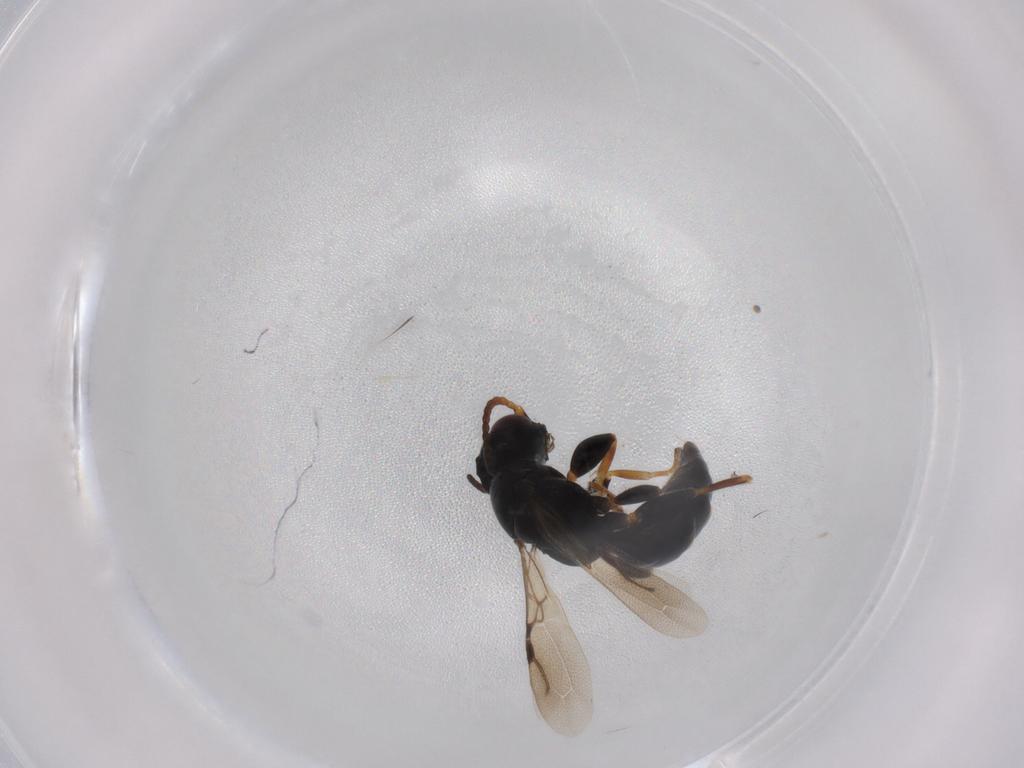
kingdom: Animalia
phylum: Arthropoda
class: Insecta
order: Hymenoptera
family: Bethylidae
